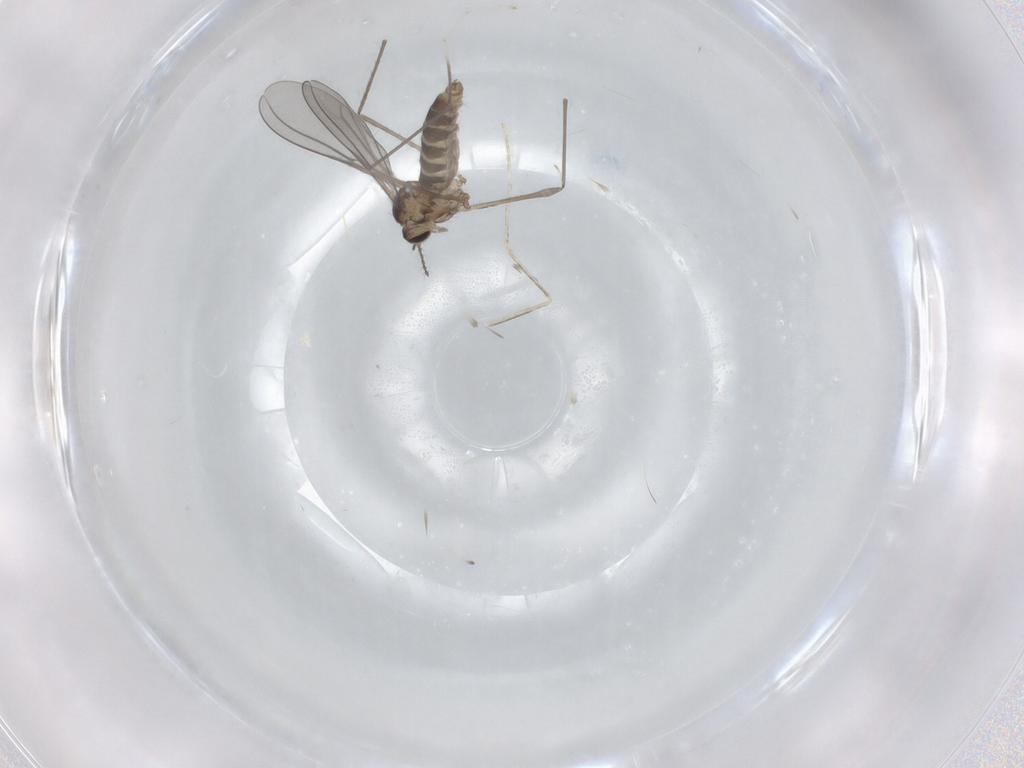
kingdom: Animalia
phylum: Arthropoda
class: Insecta
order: Diptera
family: Cecidomyiidae
